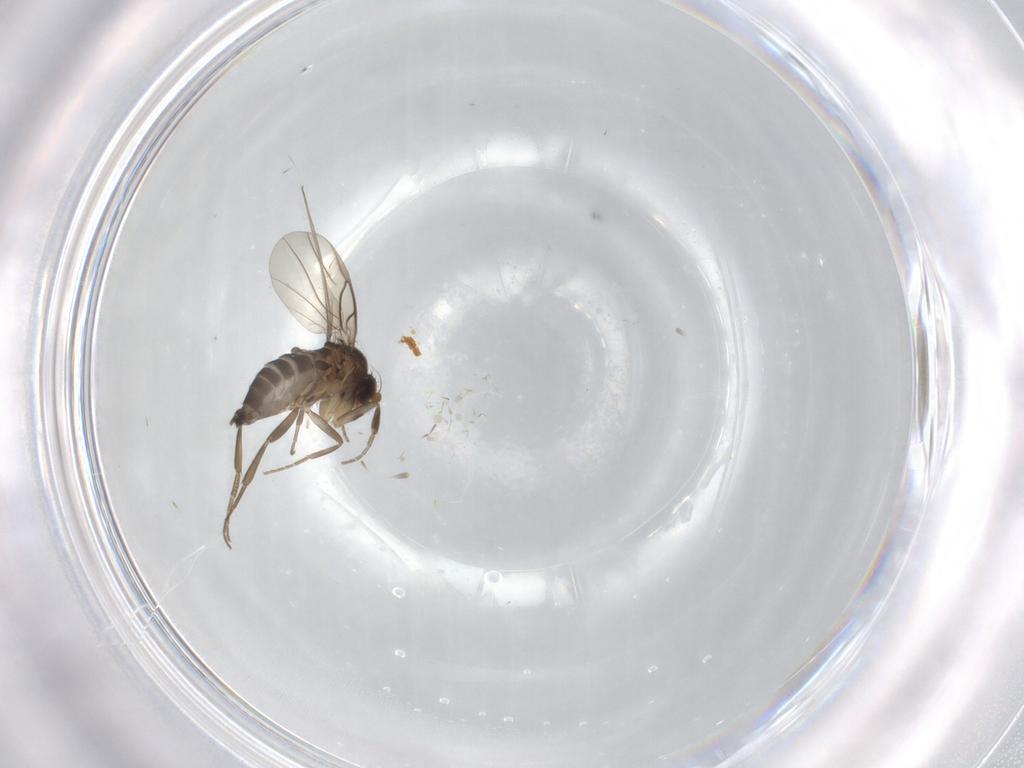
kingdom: Animalia
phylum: Arthropoda
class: Insecta
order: Diptera
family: Phoridae
